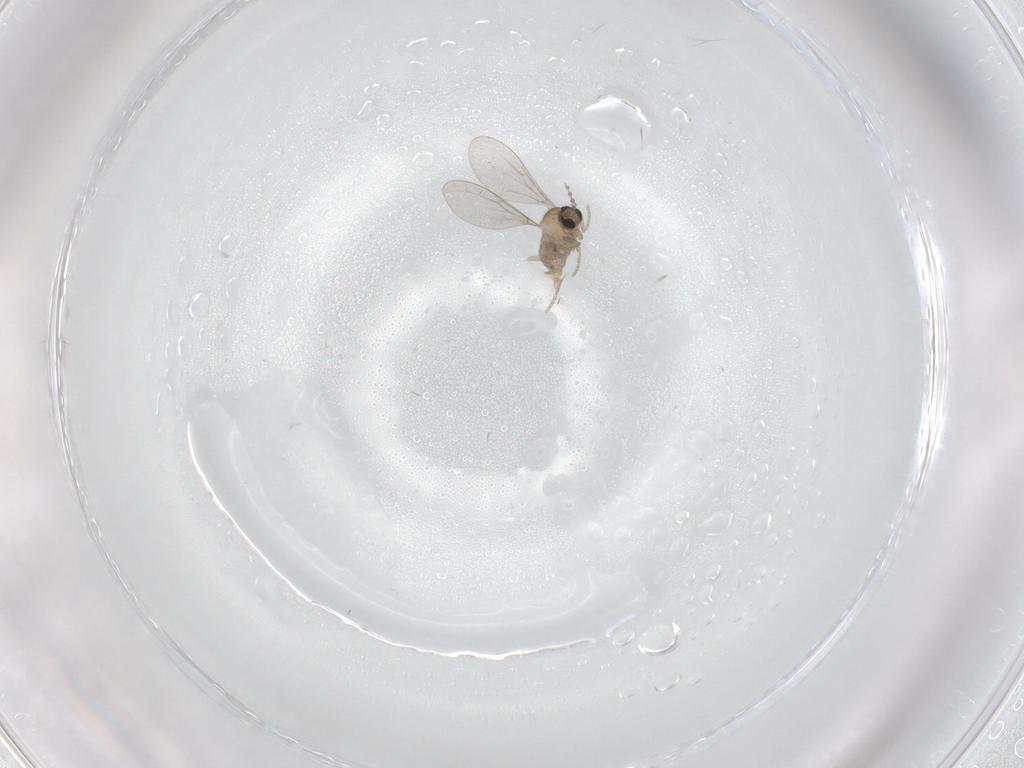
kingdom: Animalia
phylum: Arthropoda
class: Insecta
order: Diptera
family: Cecidomyiidae
